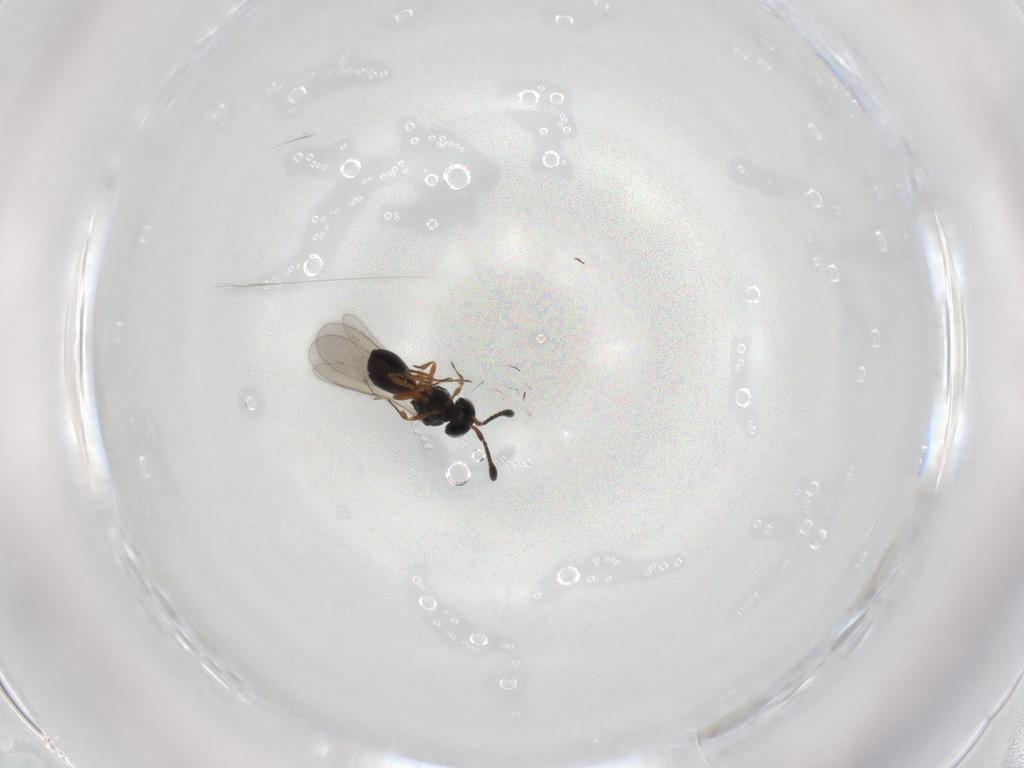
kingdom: Animalia
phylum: Arthropoda
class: Insecta
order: Hymenoptera
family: Scelionidae
